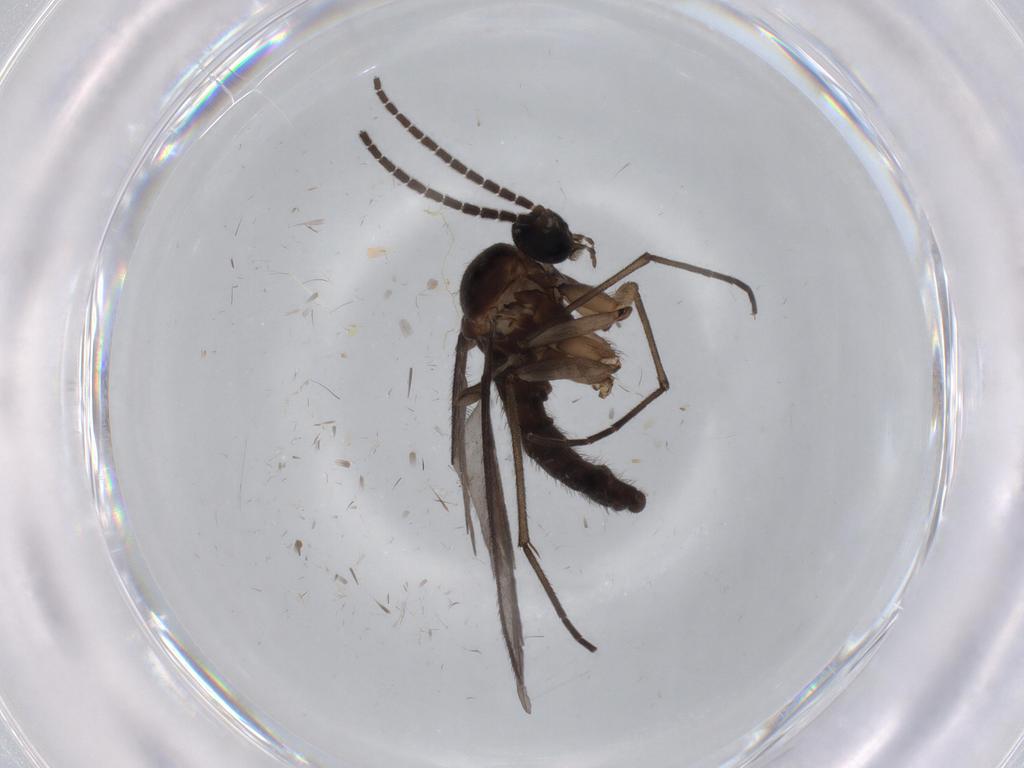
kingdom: Animalia
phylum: Arthropoda
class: Insecta
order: Diptera
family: Sciaridae
